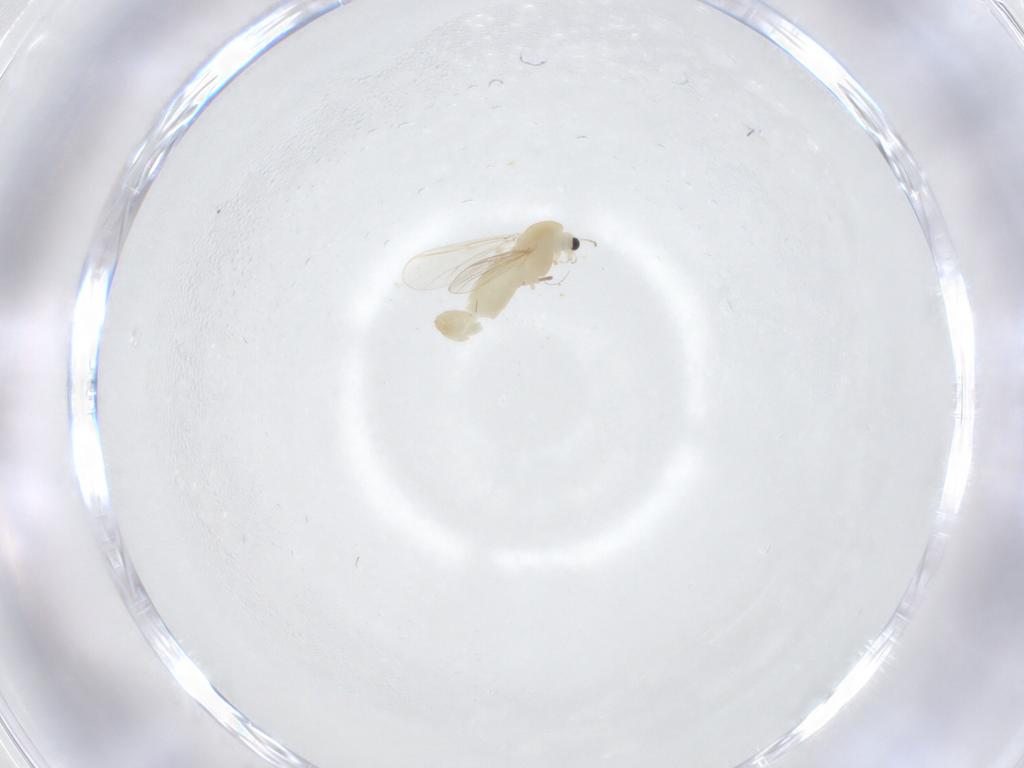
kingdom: Animalia
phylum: Arthropoda
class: Insecta
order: Diptera
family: Chironomidae
